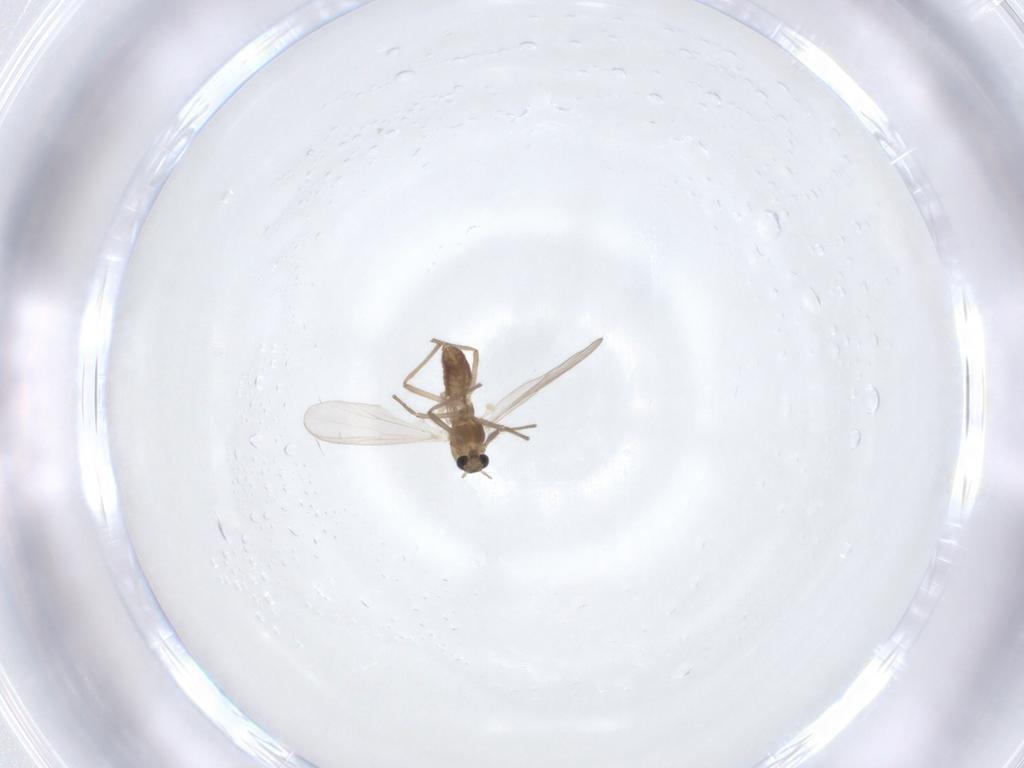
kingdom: Animalia
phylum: Arthropoda
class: Insecta
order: Diptera
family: Chironomidae
